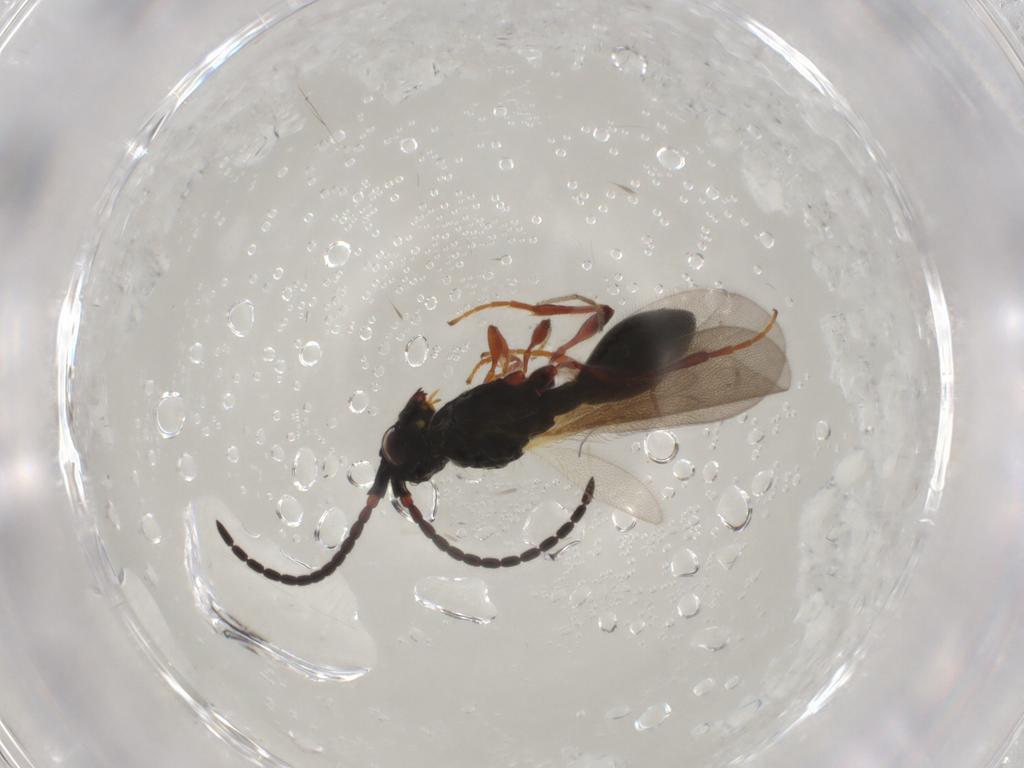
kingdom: Animalia
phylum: Arthropoda
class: Insecta
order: Hymenoptera
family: Diapriidae
